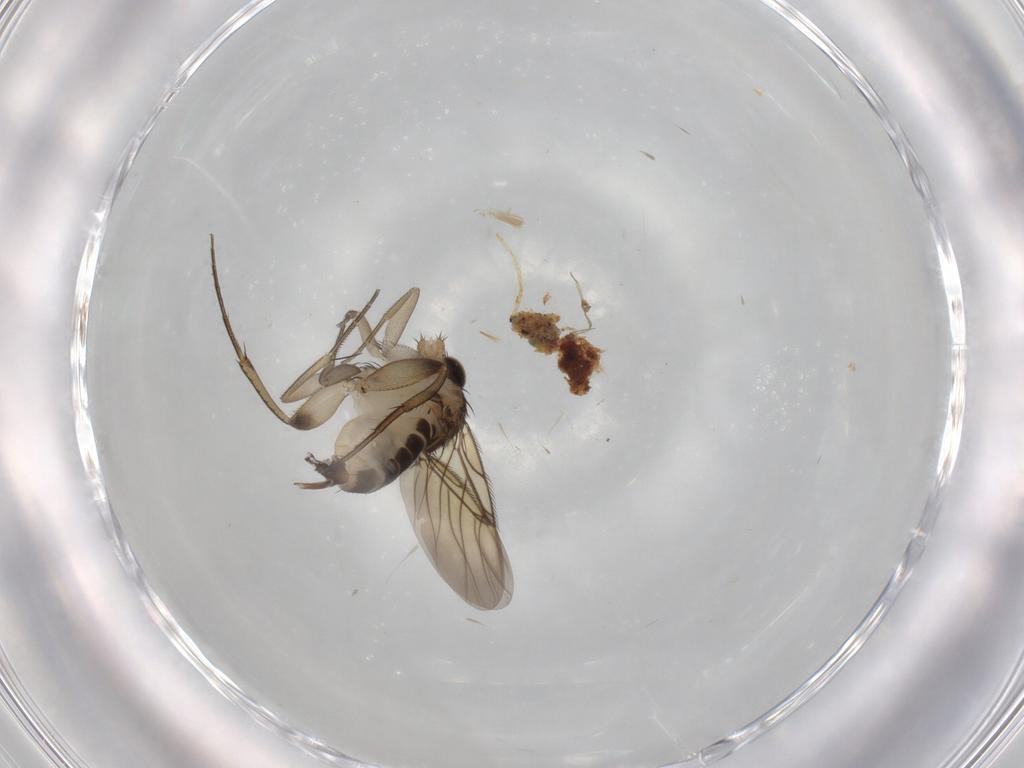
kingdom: Animalia
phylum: Arthropoda
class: Insecta
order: Diptera
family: Phoridae
